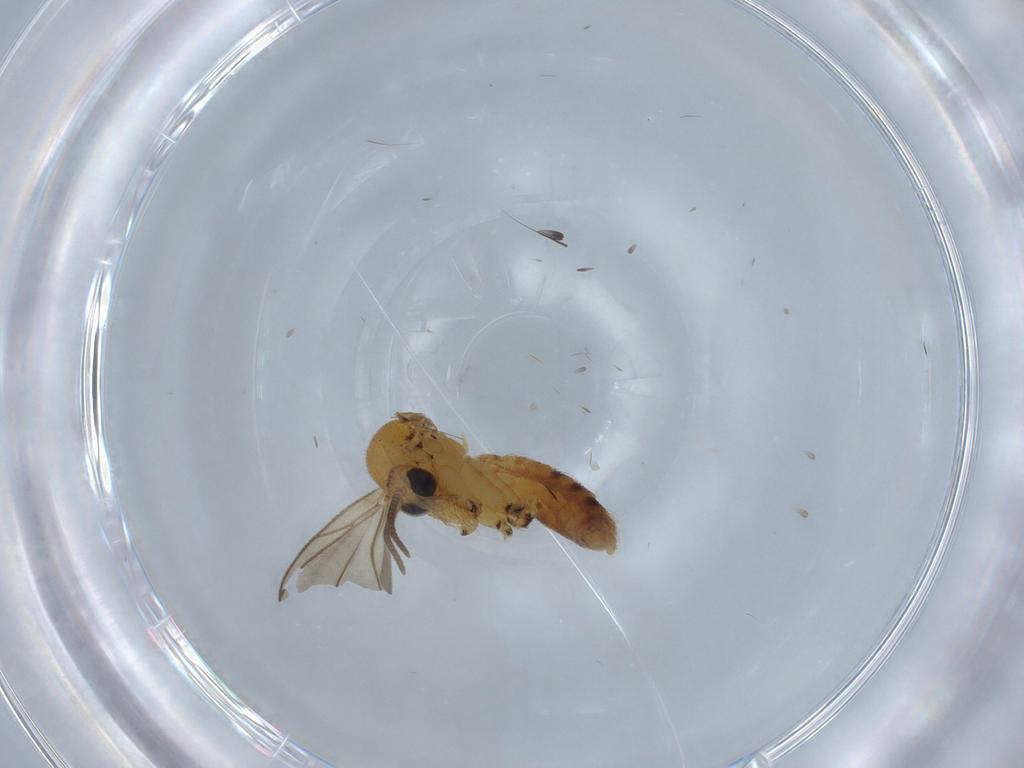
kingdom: Animalia
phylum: Arthropoda
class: Insecta
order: Diptera
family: Mycetophilidae
